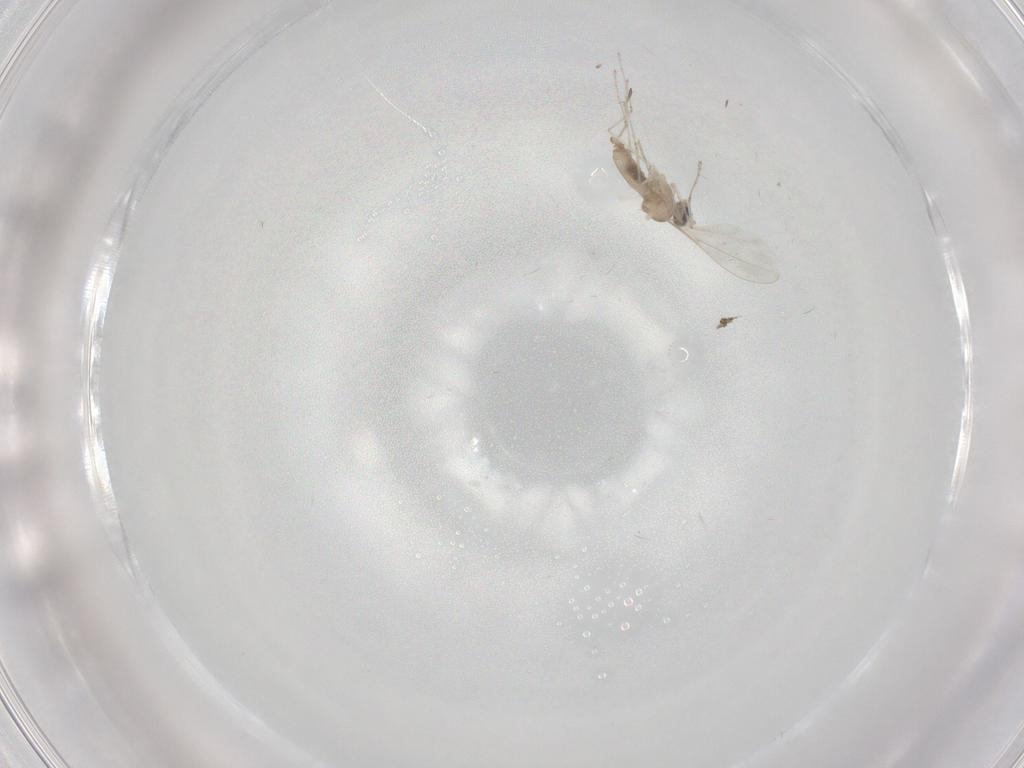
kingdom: Animalia
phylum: Arthropoda
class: Insecta
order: Diptera
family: Cecidomyiidae
